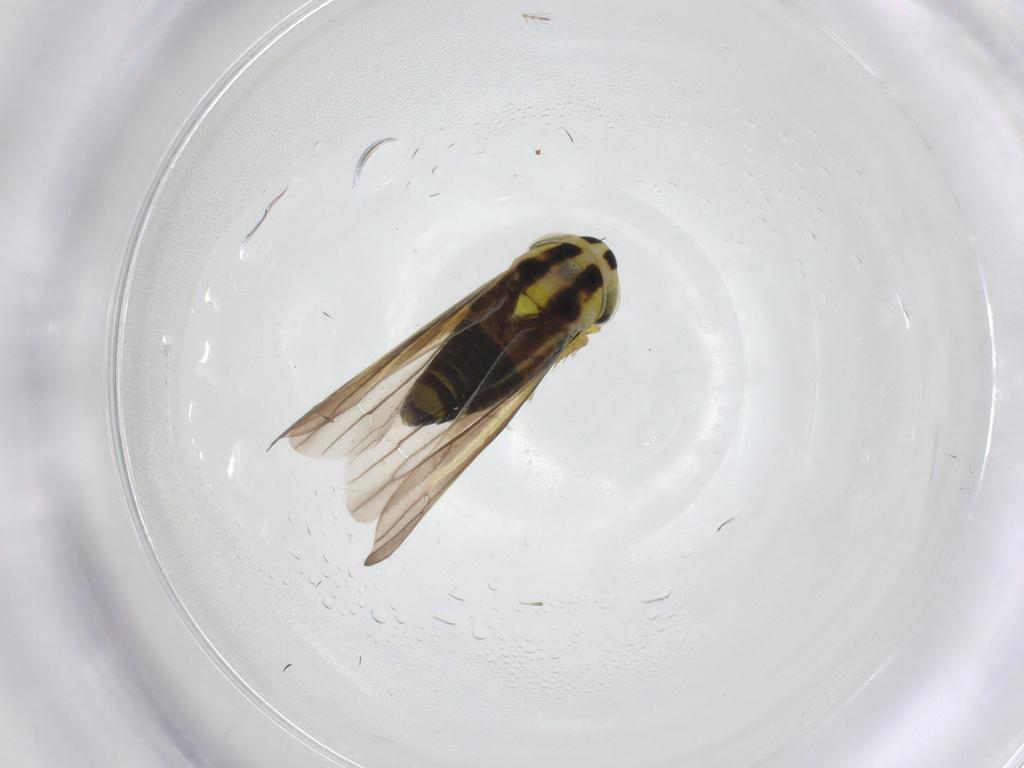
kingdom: Animalia
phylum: Arthropoda
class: Insecta
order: Hemiptera
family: Cicadellidae
